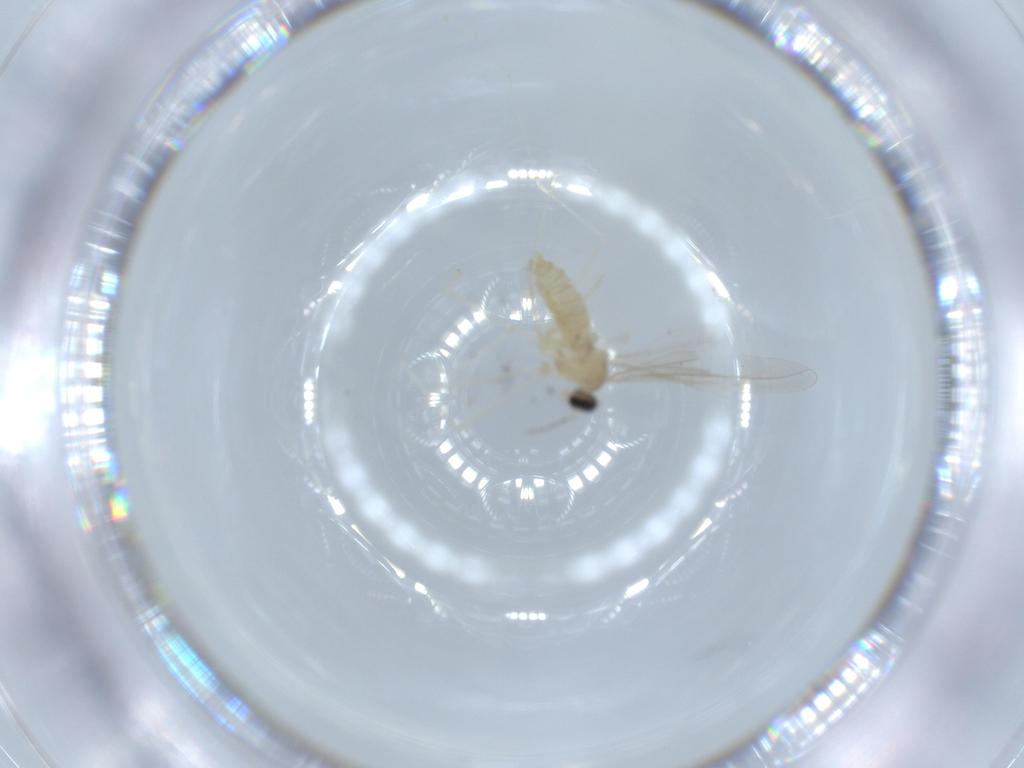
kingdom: Animalia
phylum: Arthropoda
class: Insecta
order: Diptera
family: Cecidomyiidae
